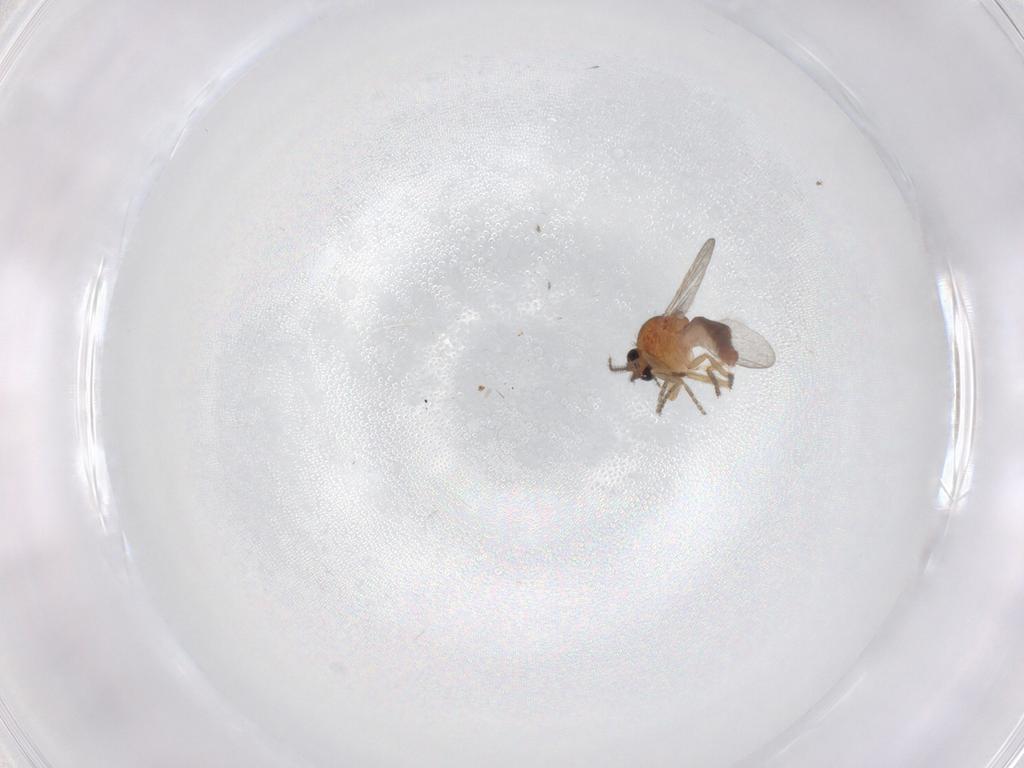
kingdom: Animalia
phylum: Arthropoda
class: Insecta
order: Diptera
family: Ceratopogonidae
